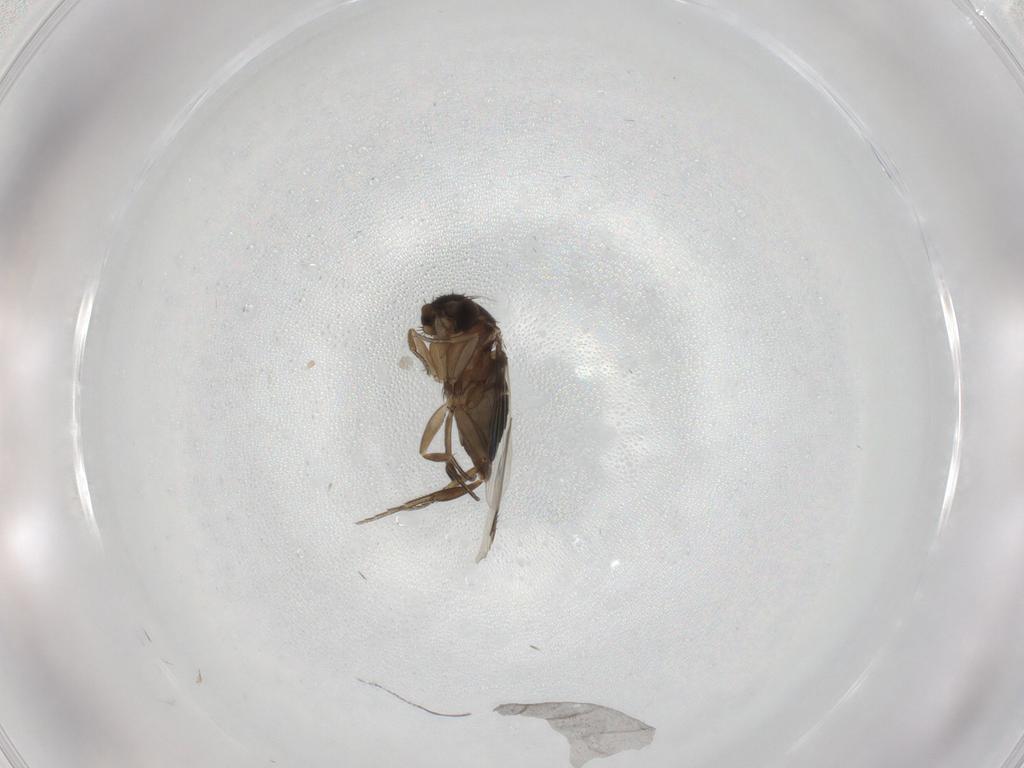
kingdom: Animalia
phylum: Arthropoda
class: Insecta
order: Diptera
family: Phoridae
